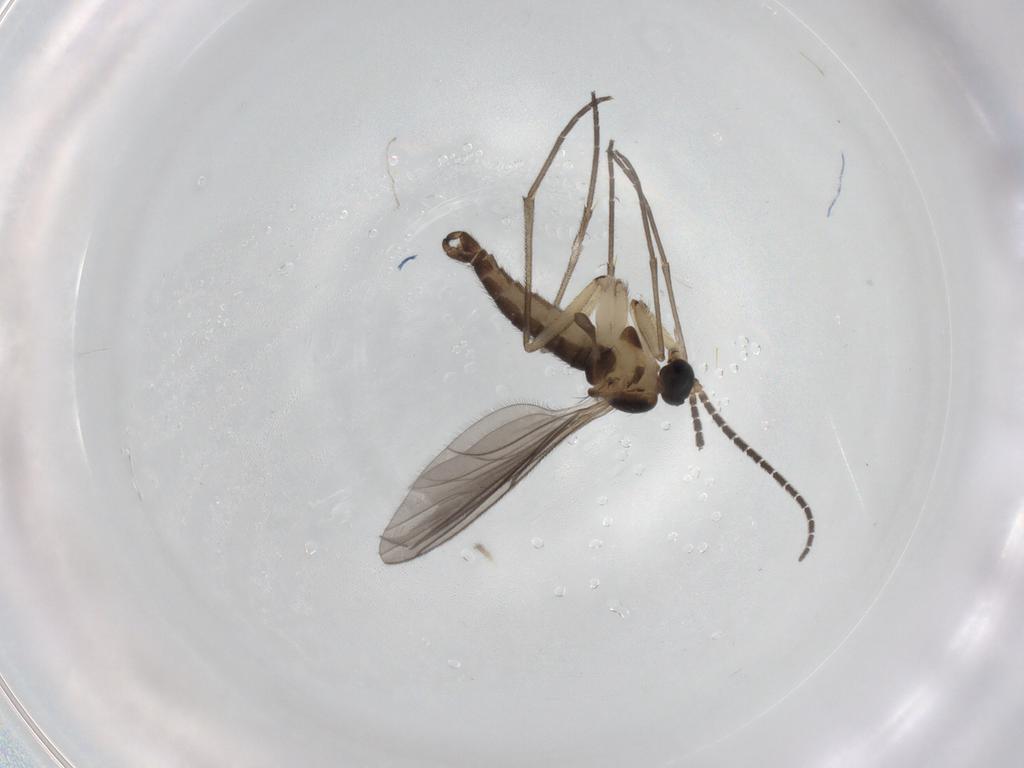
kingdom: Animalia
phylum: Arthropoda
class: Insecta
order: Diptera
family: Sciaridae
